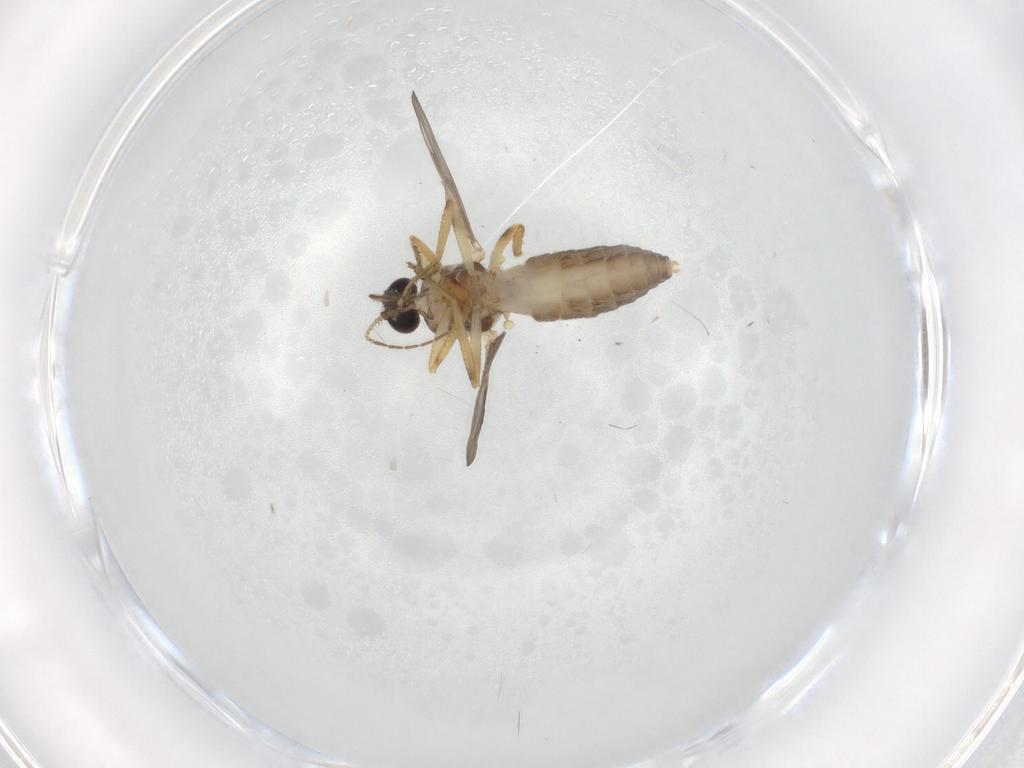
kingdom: Animalia
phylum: Arthropoda
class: Insecta
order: Diptera
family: Ceratopogonidae
